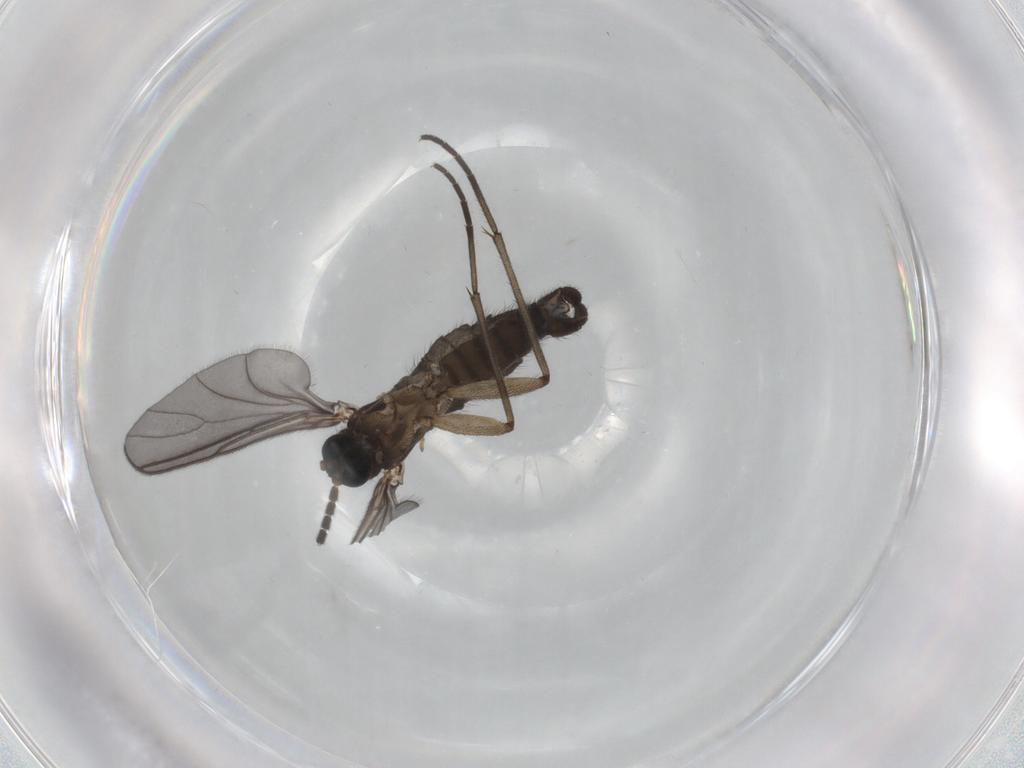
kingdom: Animalia
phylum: Arthropoda
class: Insecta
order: Diptera
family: Sciaridae
